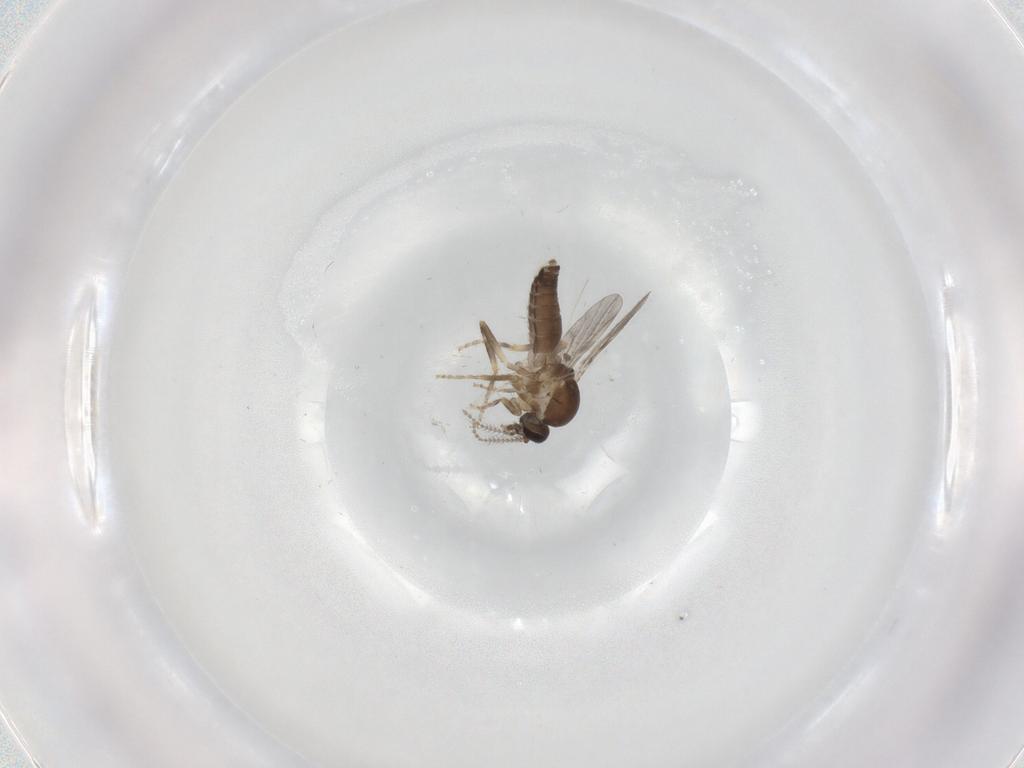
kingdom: Animalia
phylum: Arthropoda
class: Insecta
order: Diptera
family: Ceratopogonidae
